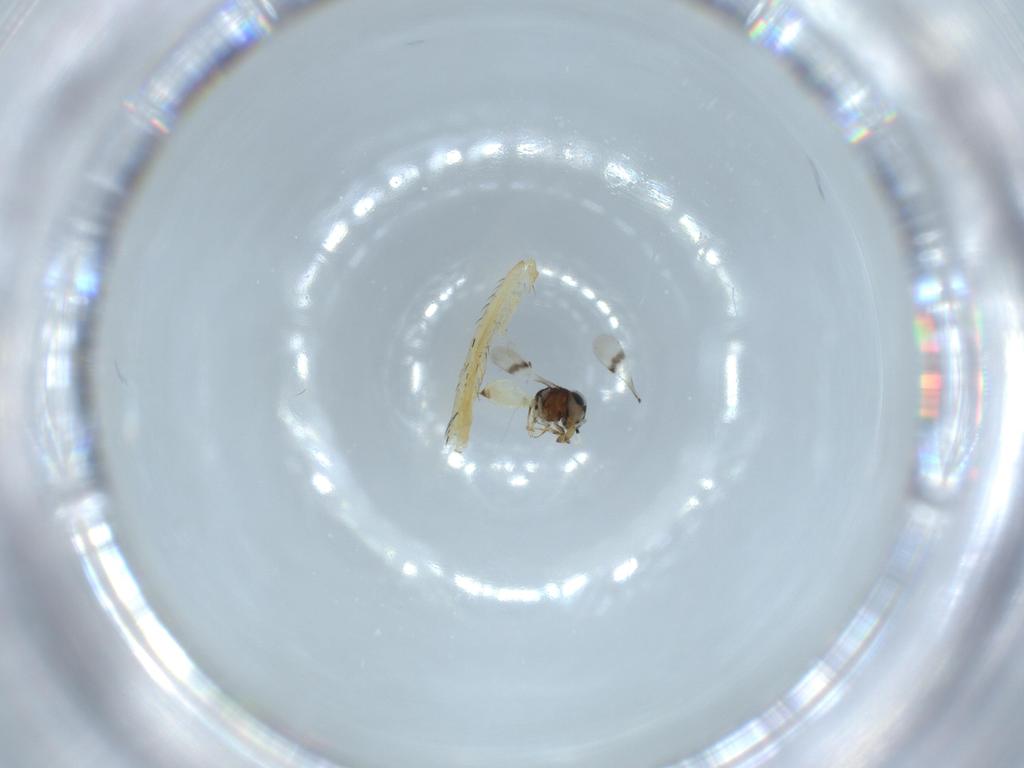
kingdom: Animalia
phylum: Arthropoda
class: Insecta
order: Hymenoptera
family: Scelionidae
